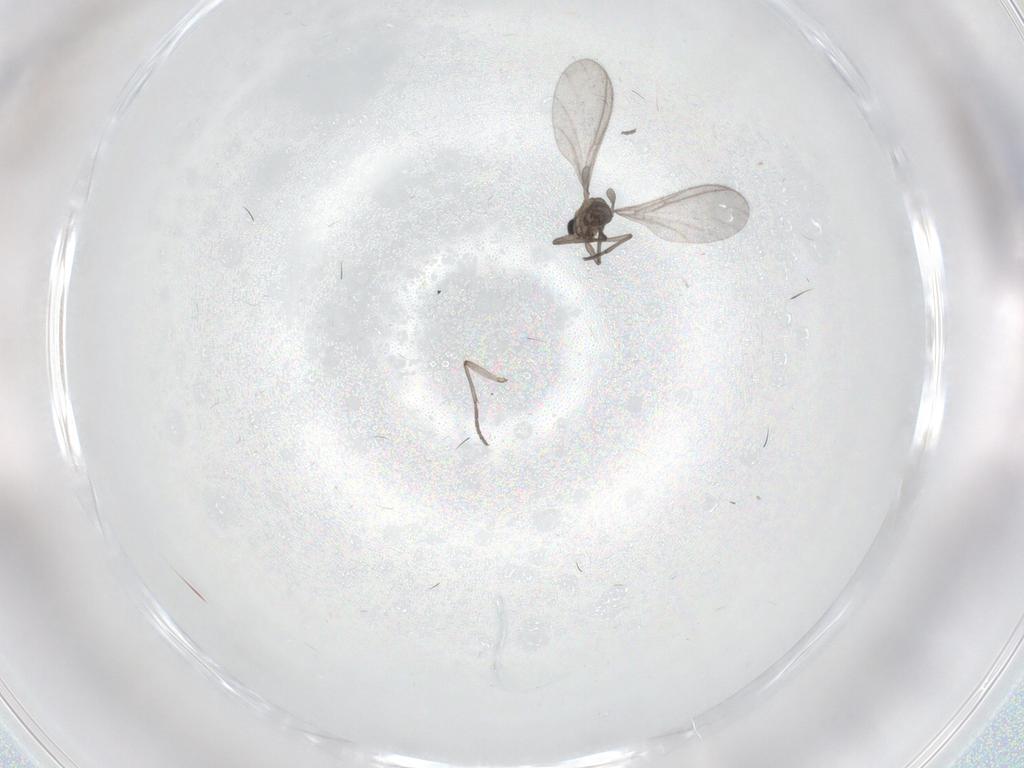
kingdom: Animalia
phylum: Arthropoda
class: Insecta
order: Diptera
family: Sciaridae
